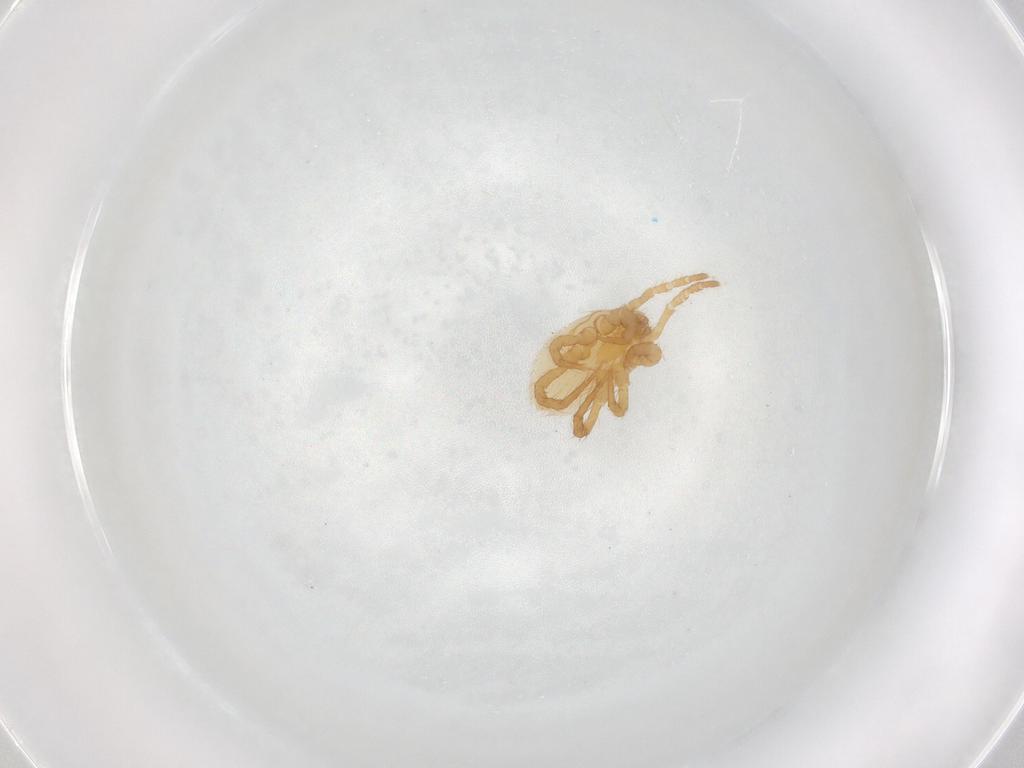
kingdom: Animalia
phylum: Arthropoda
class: Arachnida
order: Mesostigmata
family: Parasitidae
